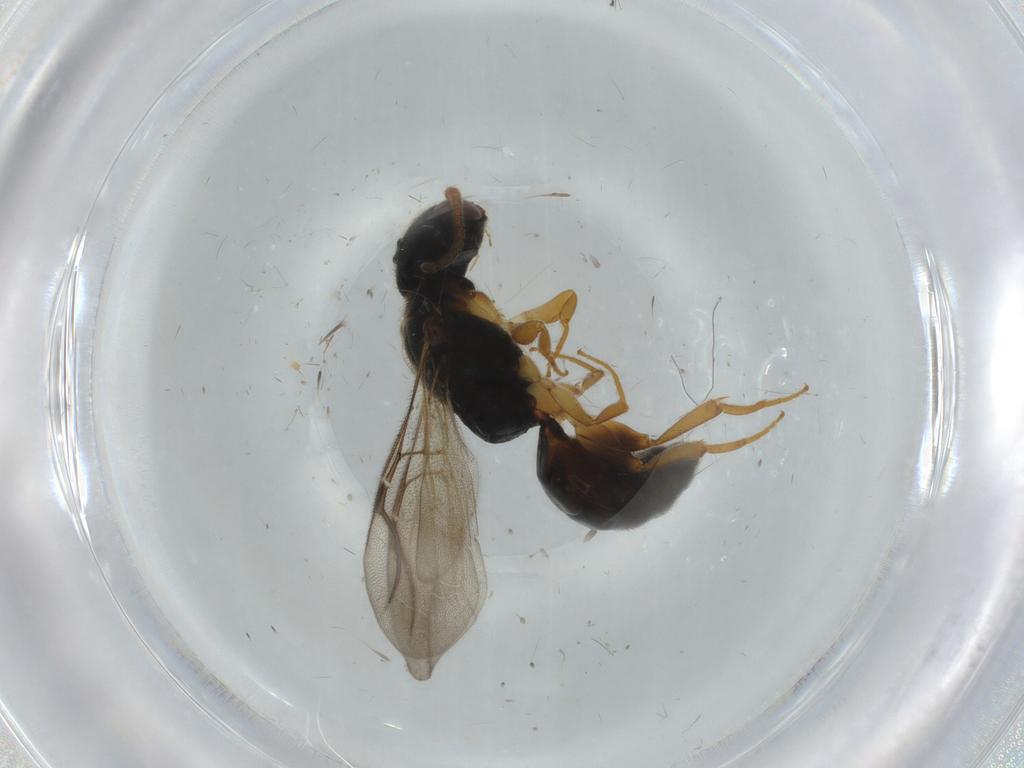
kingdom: Animalia
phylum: Arthropoda
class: Insecta
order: Hymenoptera
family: Bethylidae
